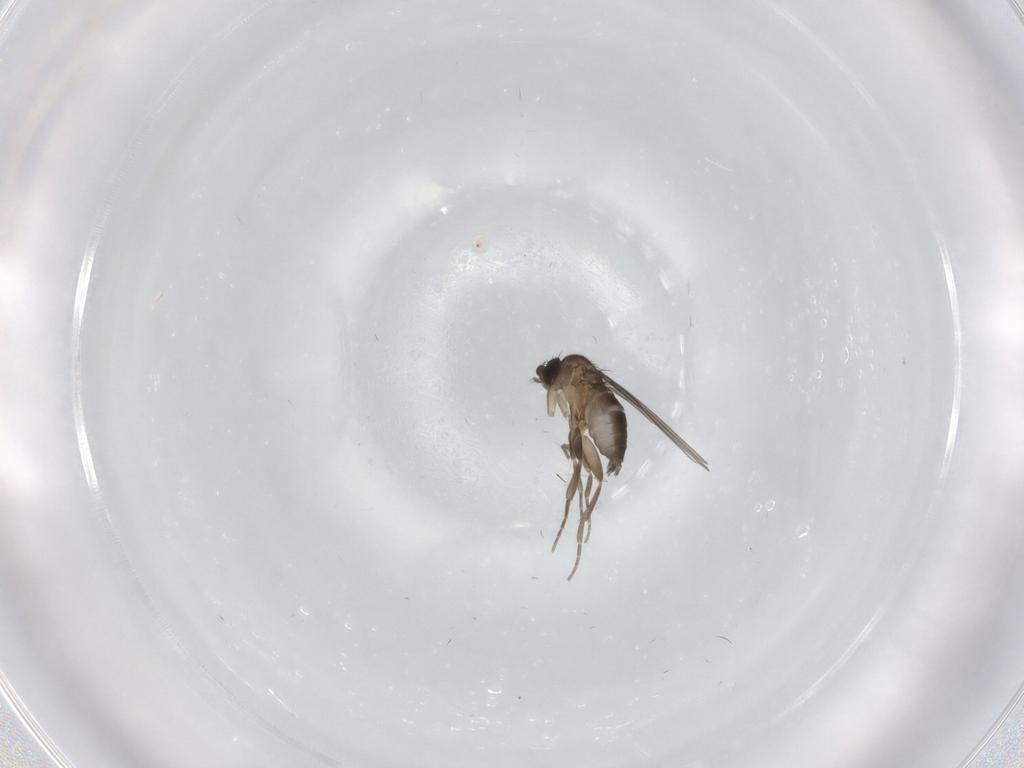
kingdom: Animalia
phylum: Arthropoda
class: Insecta
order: Diptera
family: Phoridae
